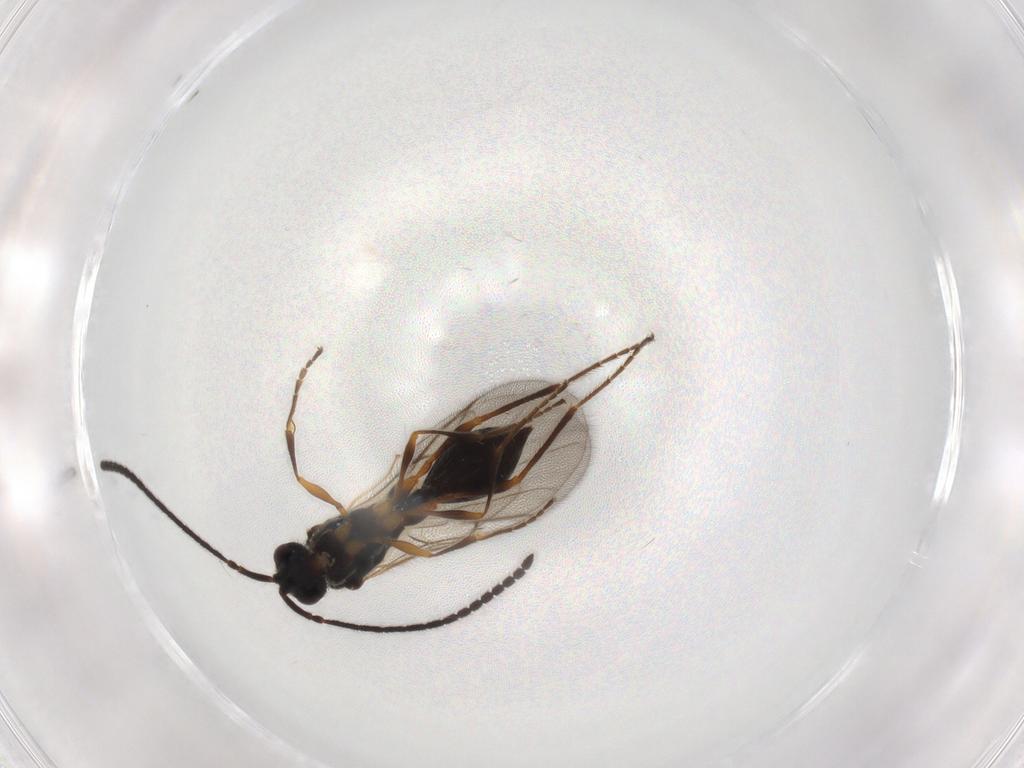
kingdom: Animalia
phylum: Arthropoda
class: Insecta
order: Hymenoptera
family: Diapriidae
